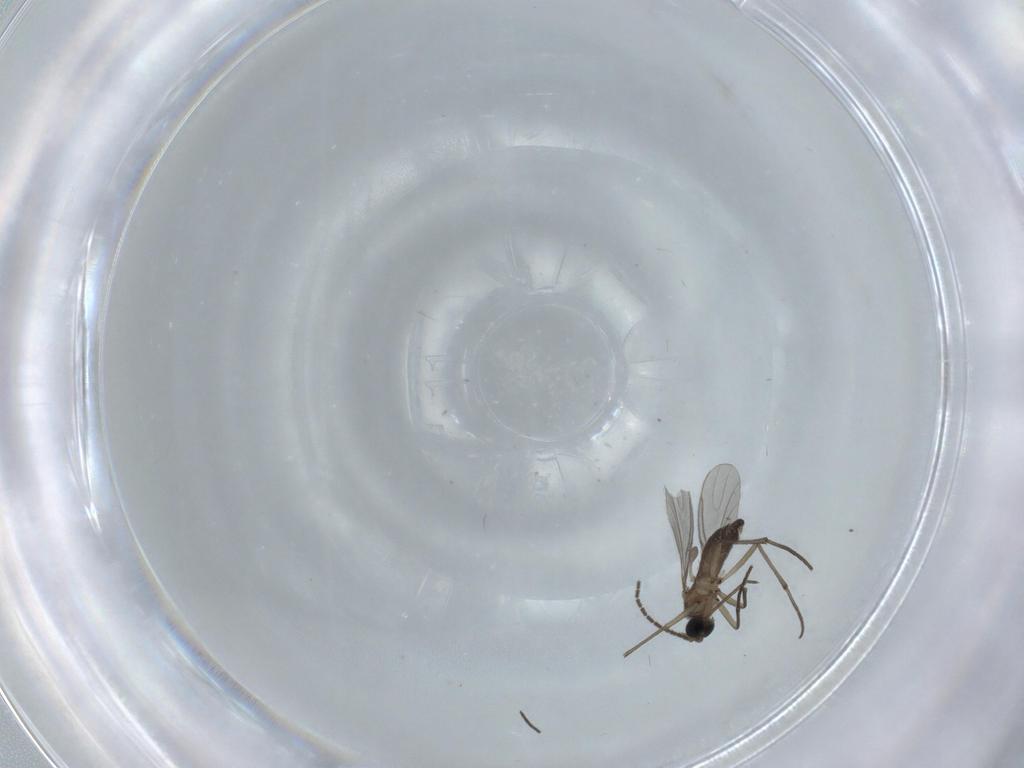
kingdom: Animalia
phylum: Arthropoda
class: Insecta
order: Diptera
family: Sciaridae
